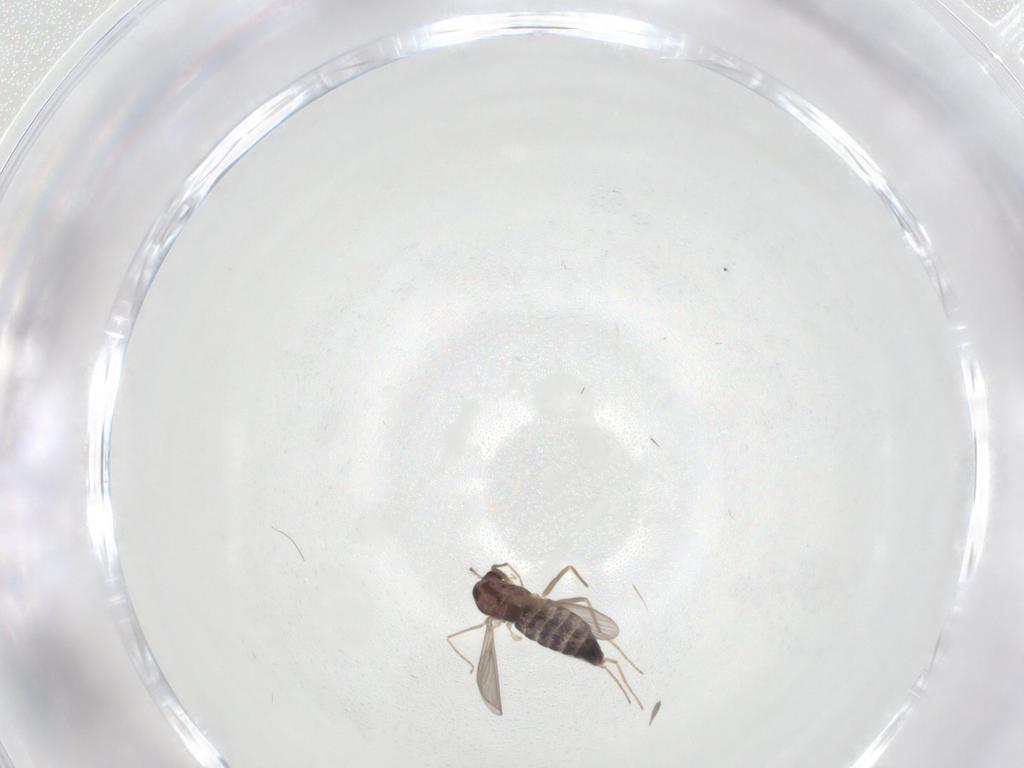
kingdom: Animalia
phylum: Arthropoda
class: Insecta
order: Diptera
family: Chironomidae
